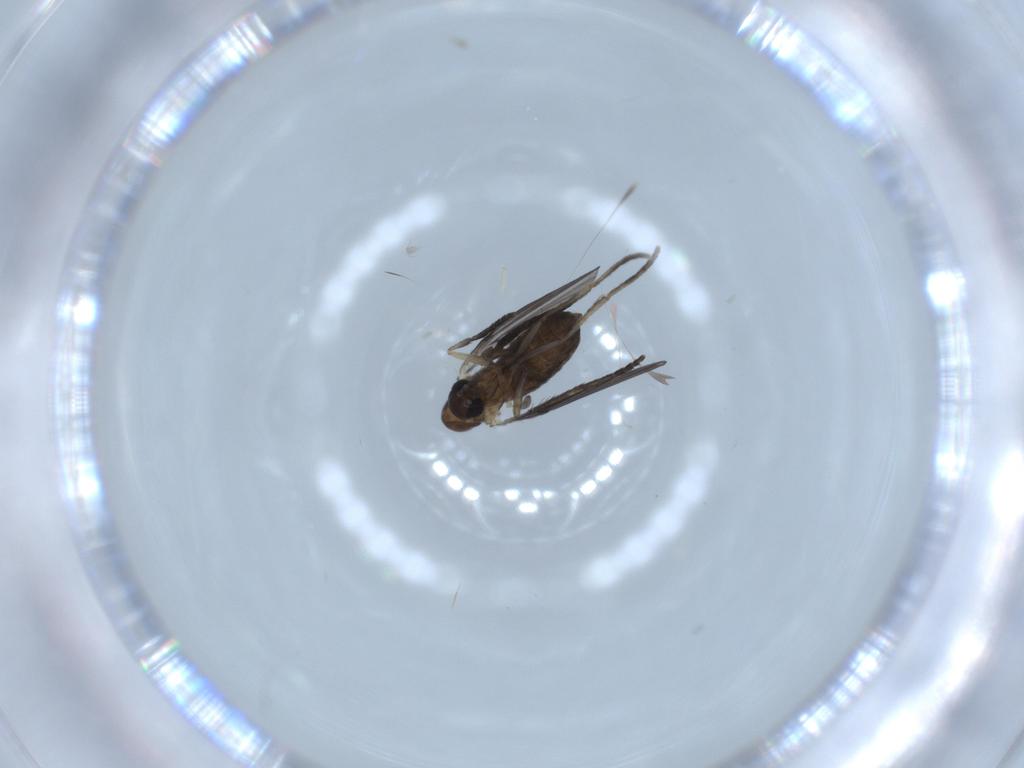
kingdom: Animalia
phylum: Arthropoda
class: Insecta
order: Diptera
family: Psychodidae
